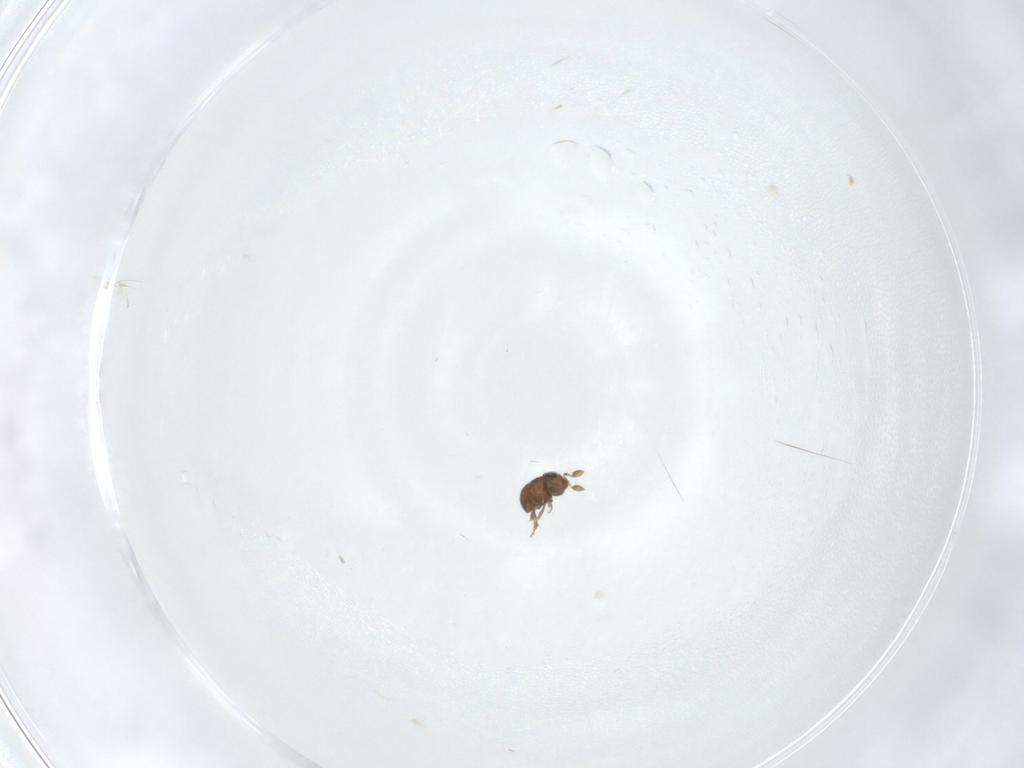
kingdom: Animalia
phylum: Arthropoda
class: Insecta
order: Hymenoptera
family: Scelionidae
